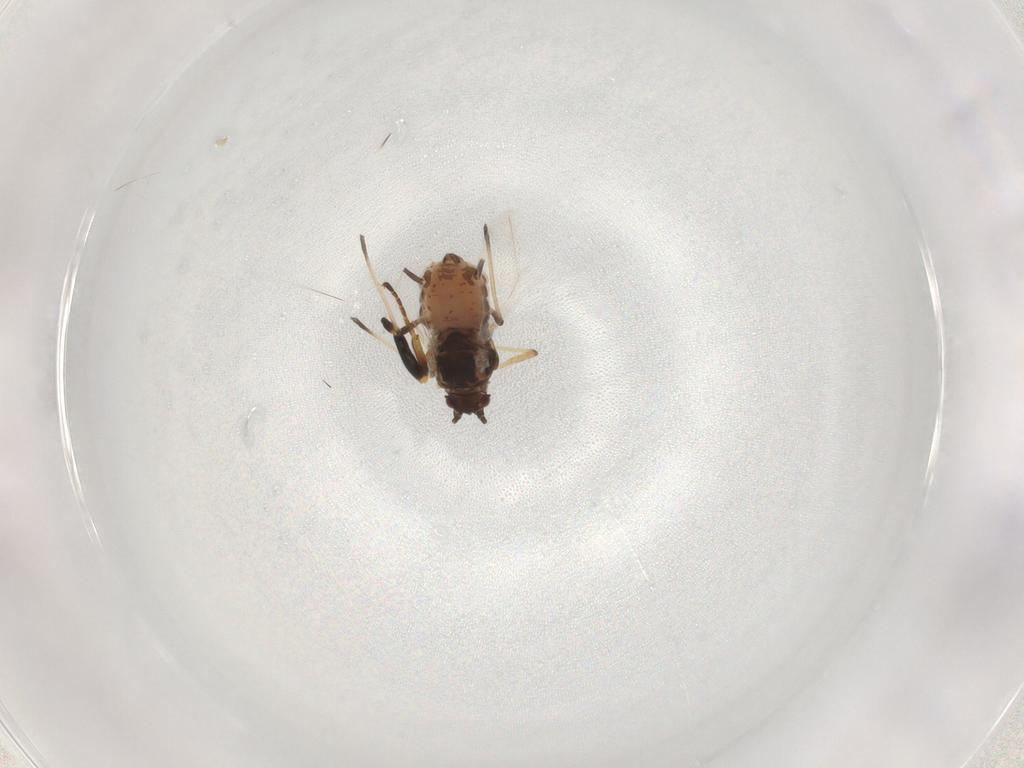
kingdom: Animalia
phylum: Arthropoda
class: Insecta
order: Hemiptera
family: Aphididae
